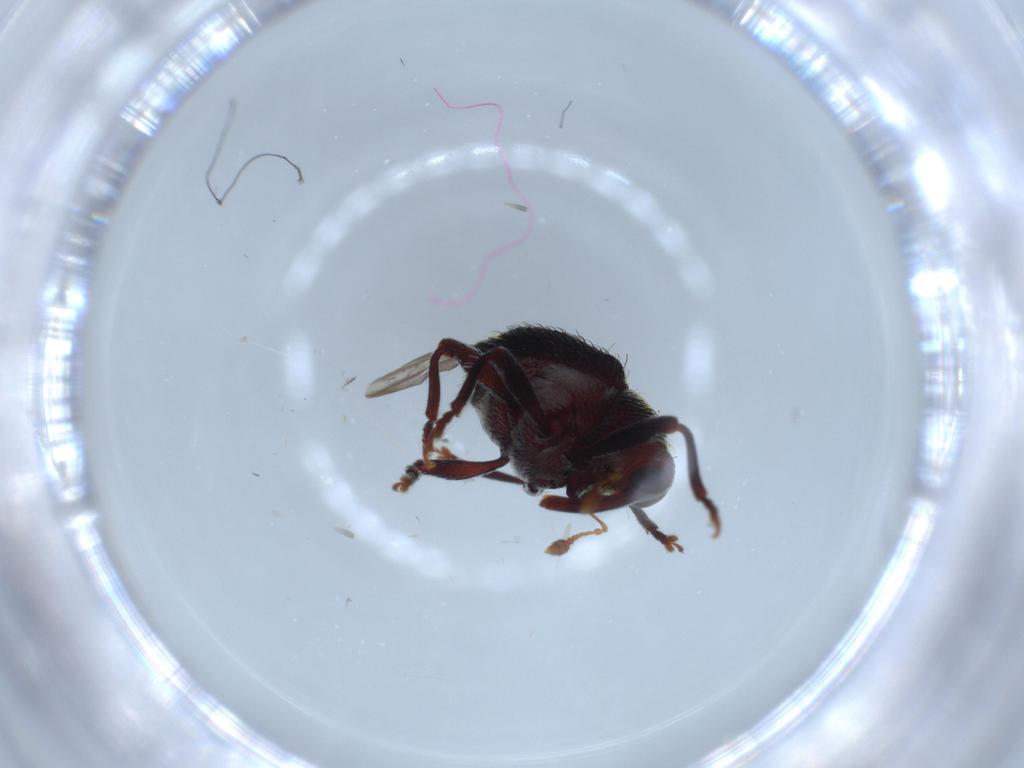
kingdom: Animalia
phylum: Arthropoda
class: Insecta
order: Coleoptera
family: Curculionidae
